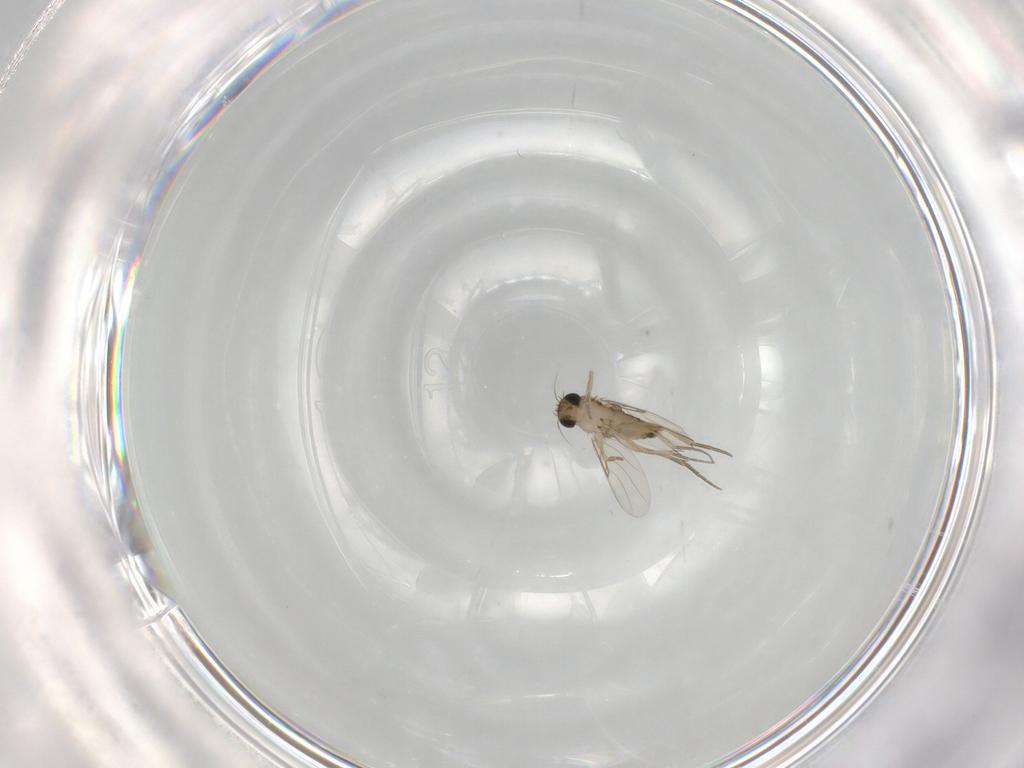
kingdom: Animalia
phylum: Arthropoda
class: Insecta
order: Diptera
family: Phoridae
